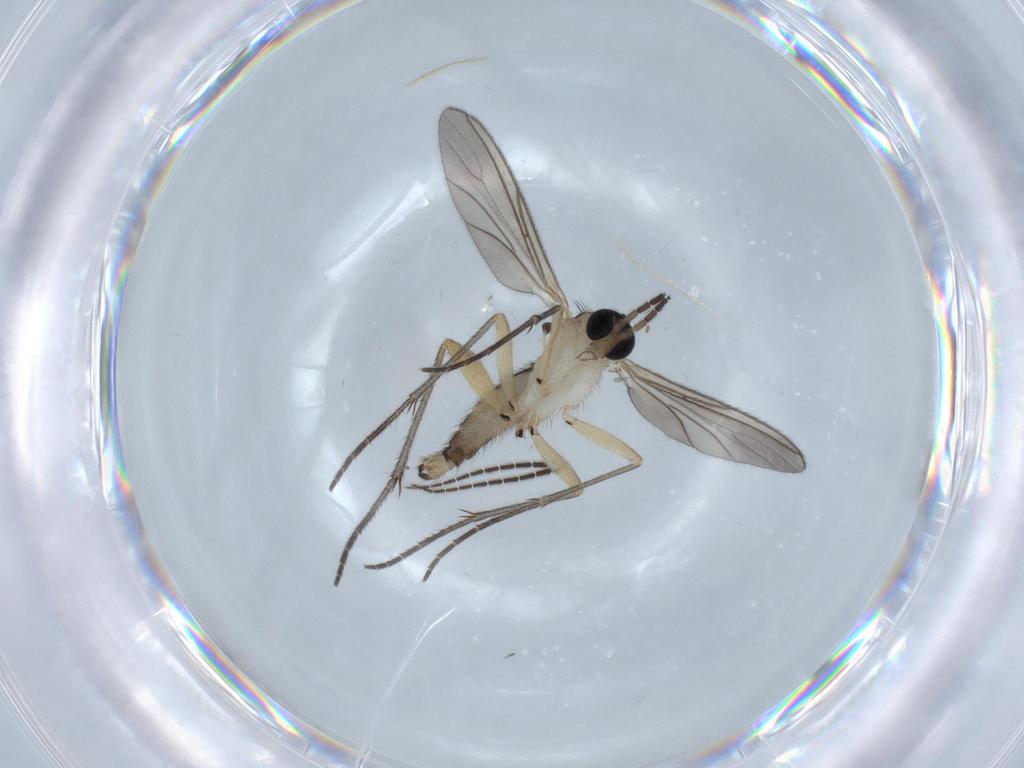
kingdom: Animalia
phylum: Arthropoda
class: Insecta
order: Diptera
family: Sciaridae
